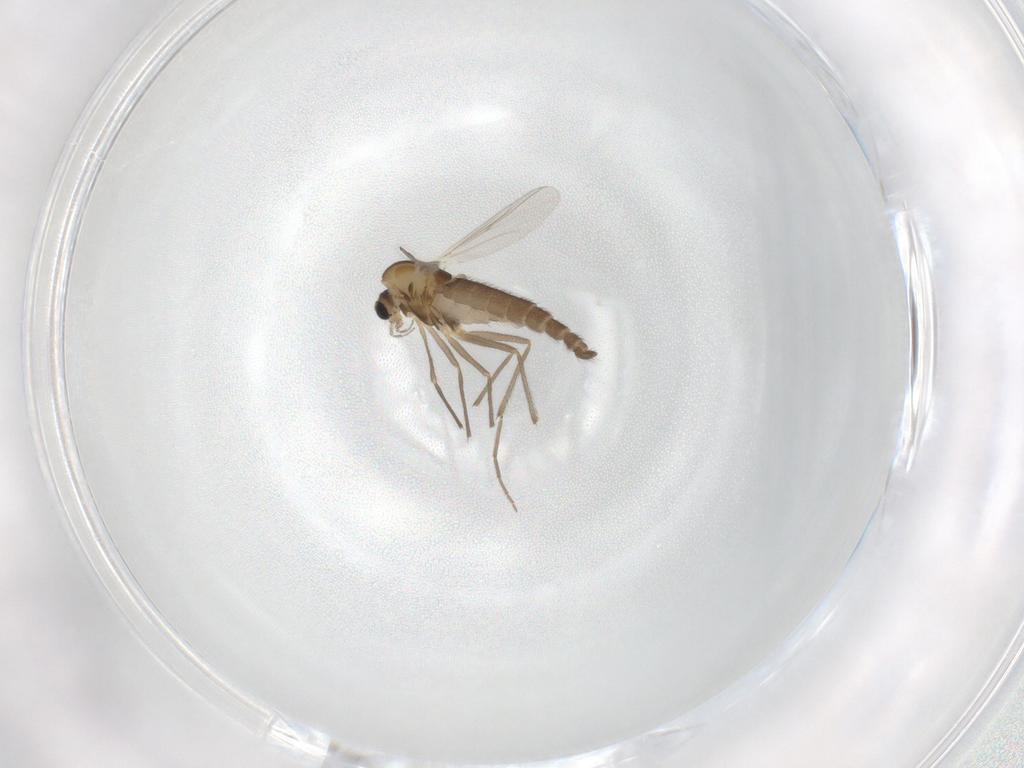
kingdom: Animalia
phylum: Arthropoda
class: Insecta
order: Diptera
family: Chironomidae
